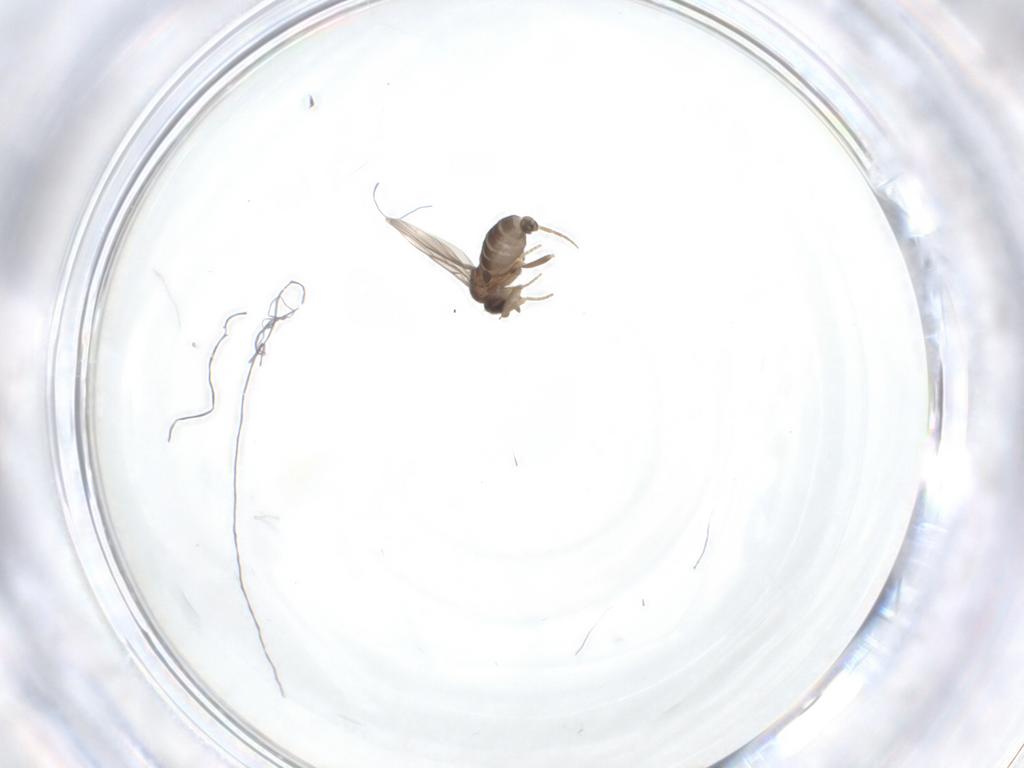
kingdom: Animalia
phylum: Arthropoda
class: Insecta
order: Diptera
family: Phoridae
